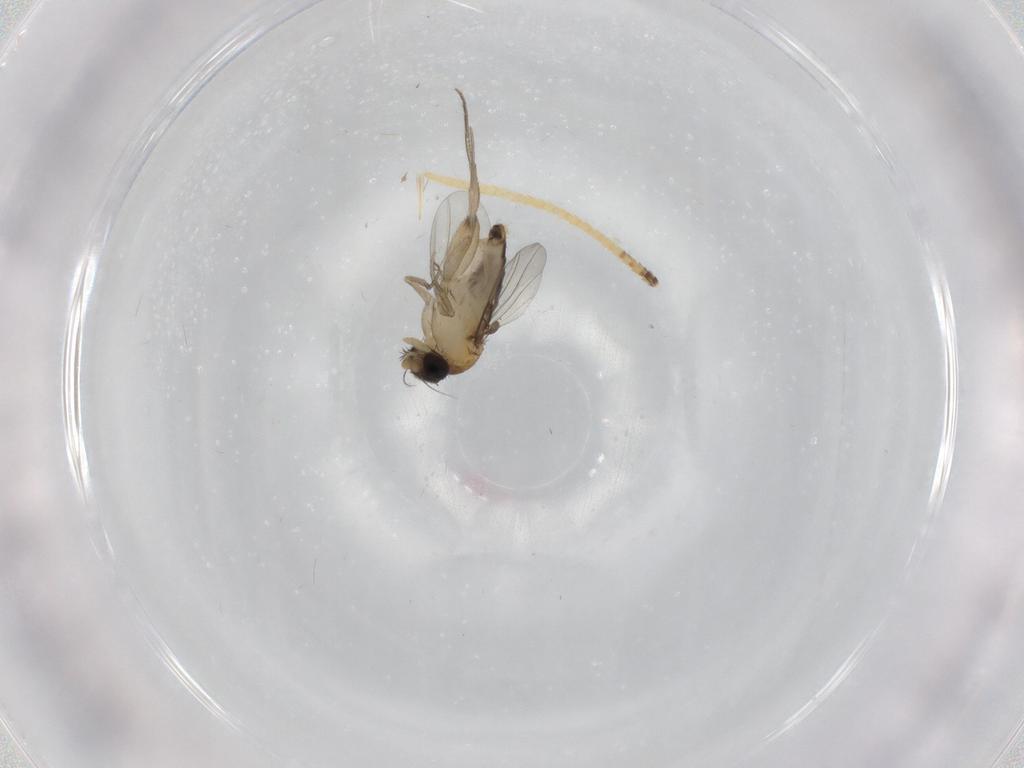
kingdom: Animalia
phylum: Arthropoda
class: Insecta
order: Diptera
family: Phoridae
